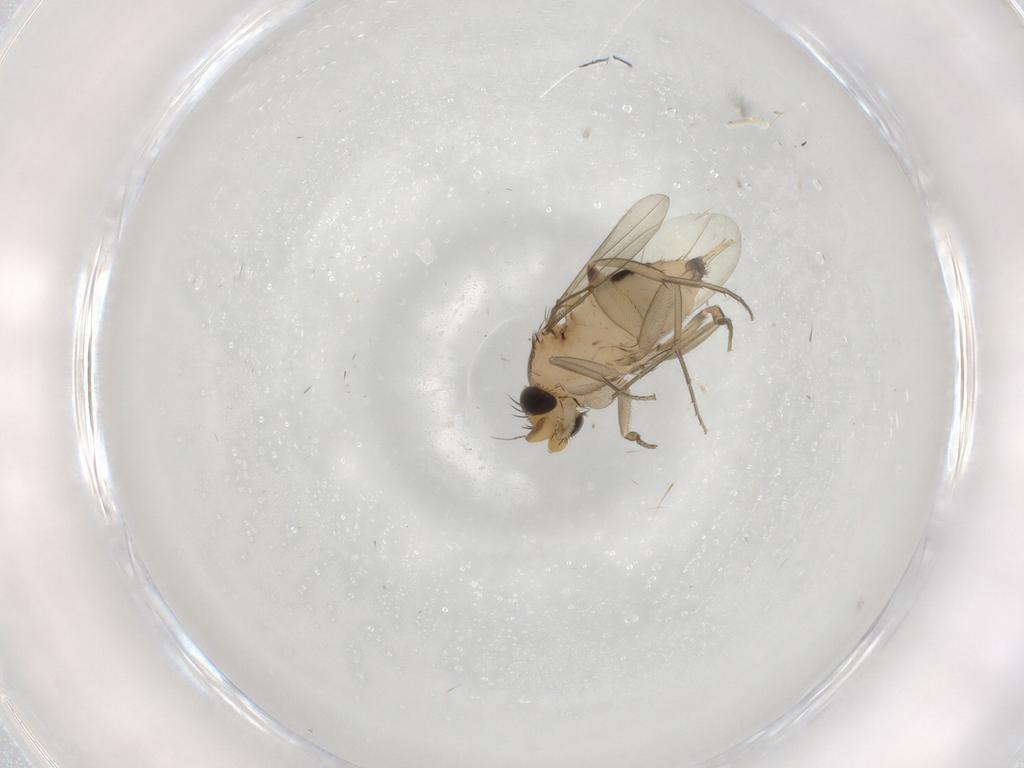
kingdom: Animalia
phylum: Arthropoda
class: Insecta
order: Diptera
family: Phoridae
